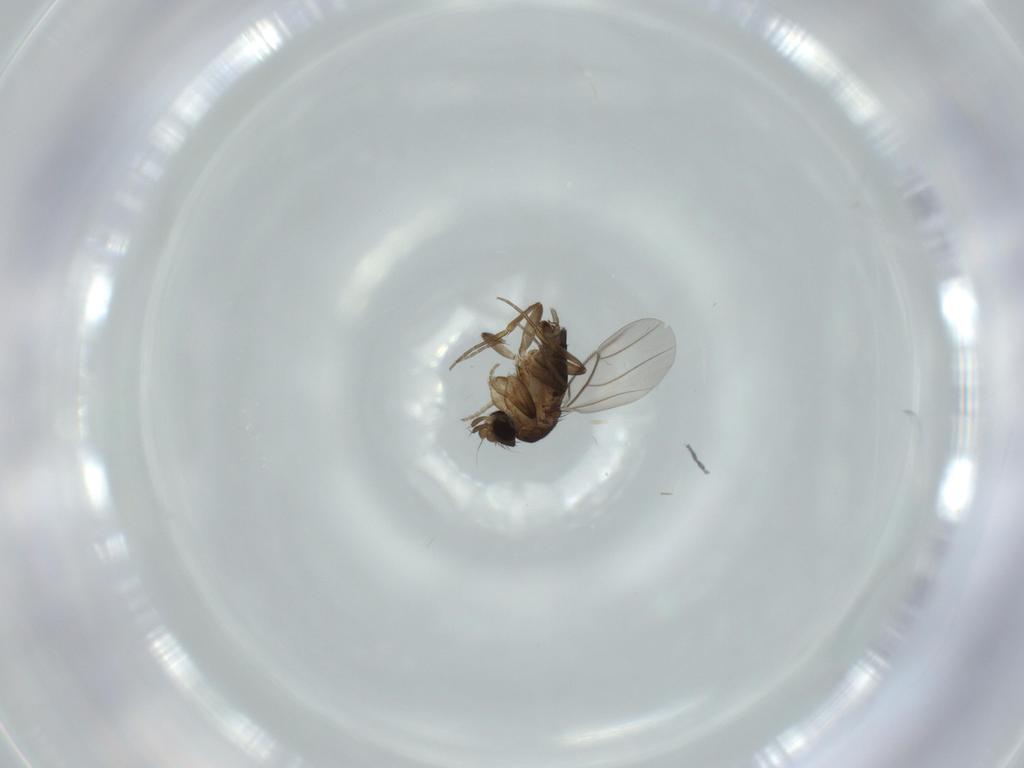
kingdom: Animalia
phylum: Arthropoda
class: Insecta
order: Diptera
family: Phoridae
